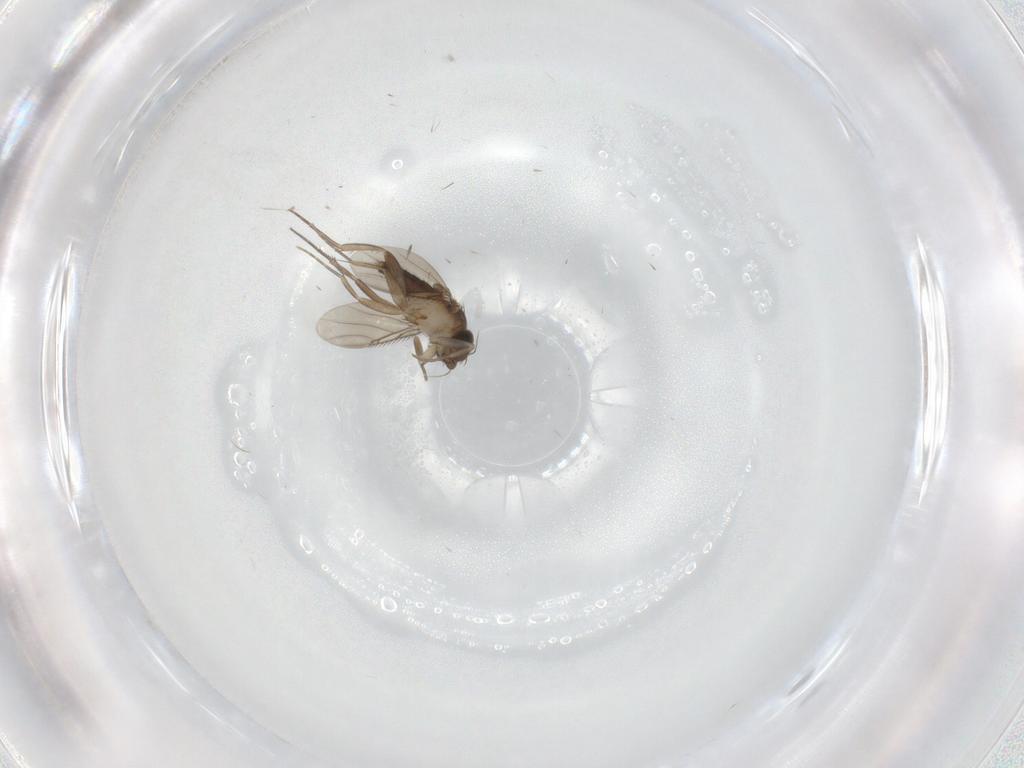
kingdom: Animalia
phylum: Arthropoda
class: Insecta
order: Diptera
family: Phoridae
